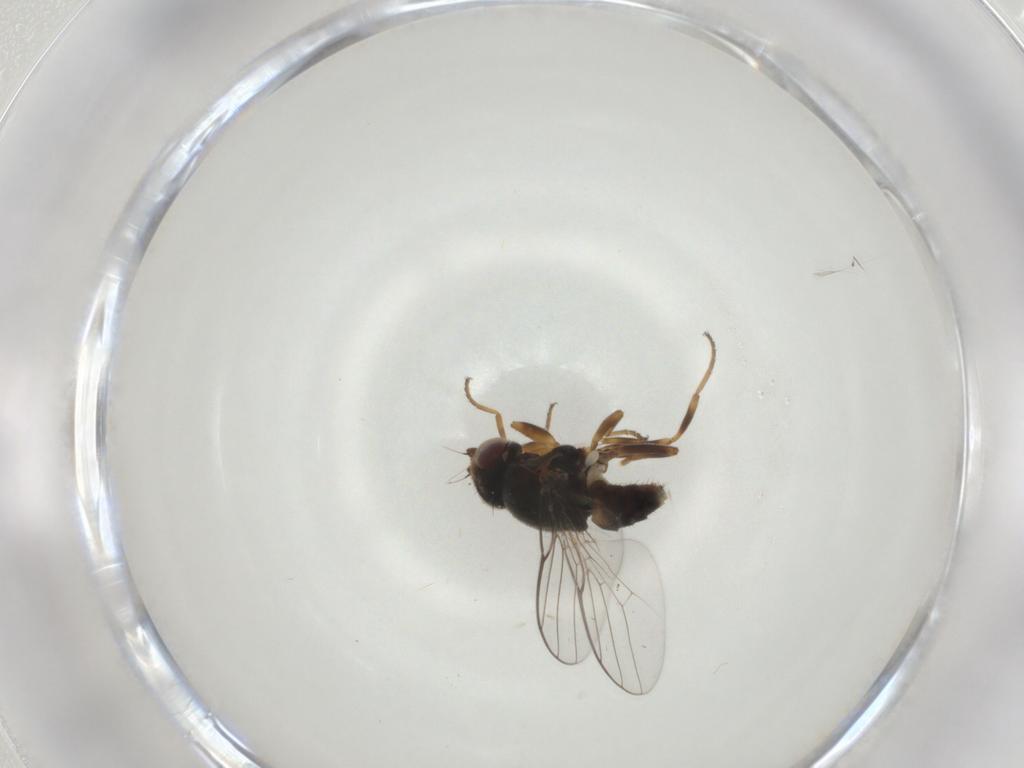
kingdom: Animalia
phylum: Arthropoda
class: Insecta
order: Diptera
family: Chloropidae
